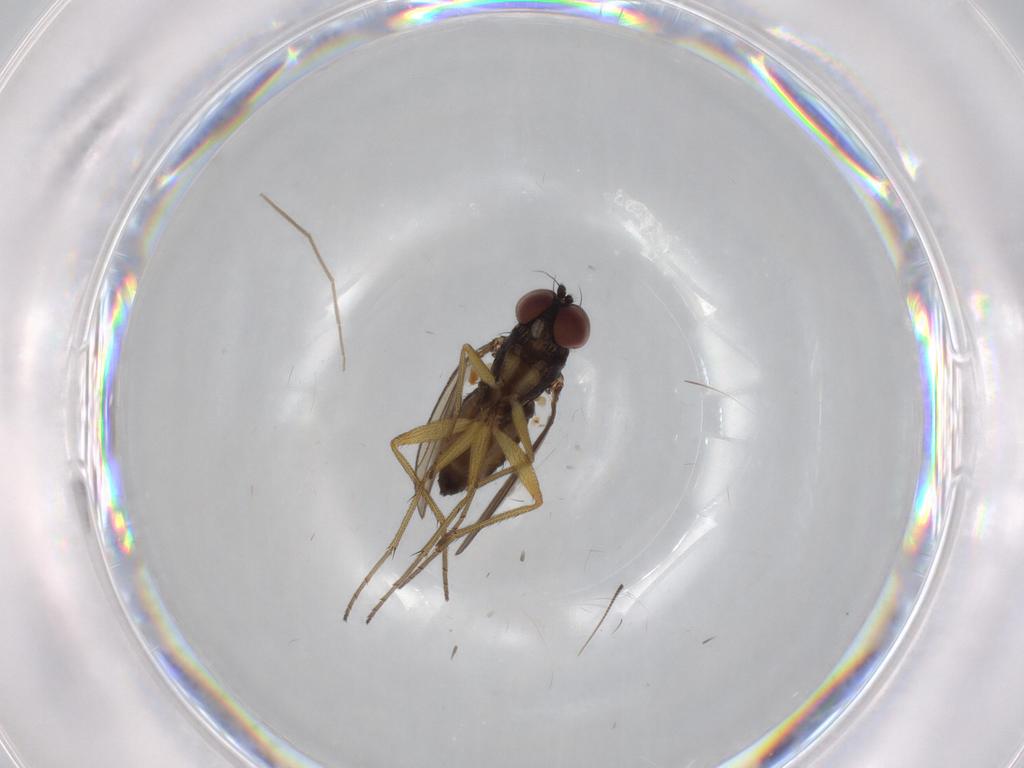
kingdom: Animalia
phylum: Arthropoda
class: Insecta
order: Diptera
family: Dolichopodidae
